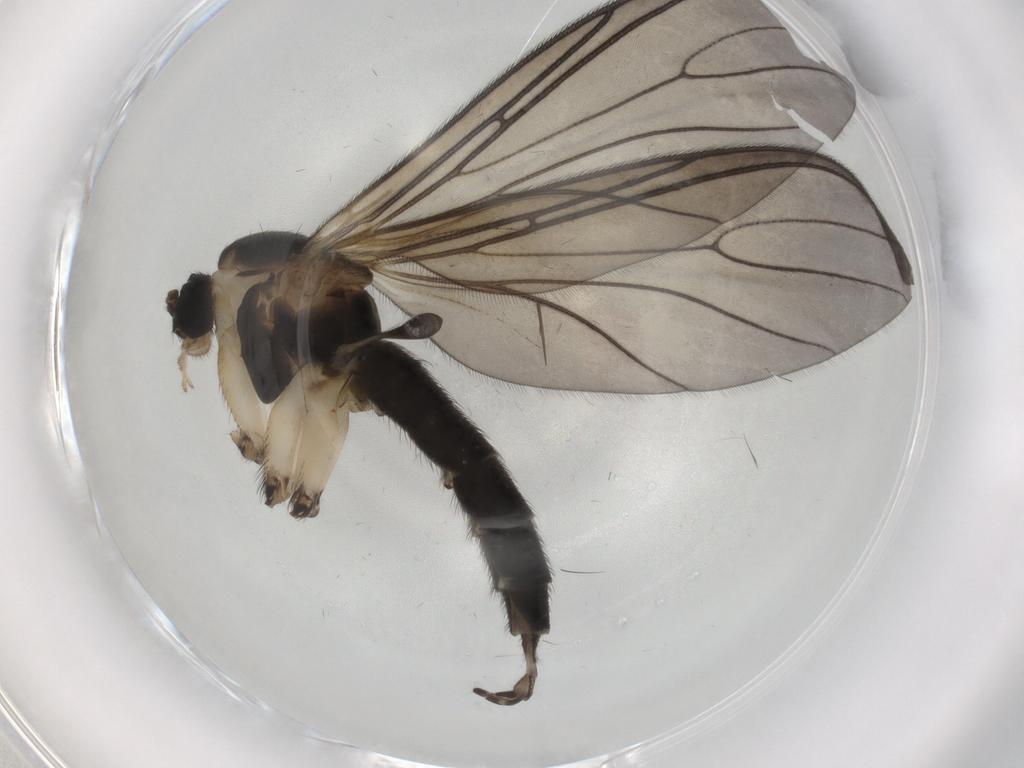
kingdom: Animalia
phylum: Arthropoda
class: Insecta
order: Diptera
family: Sciaridae
